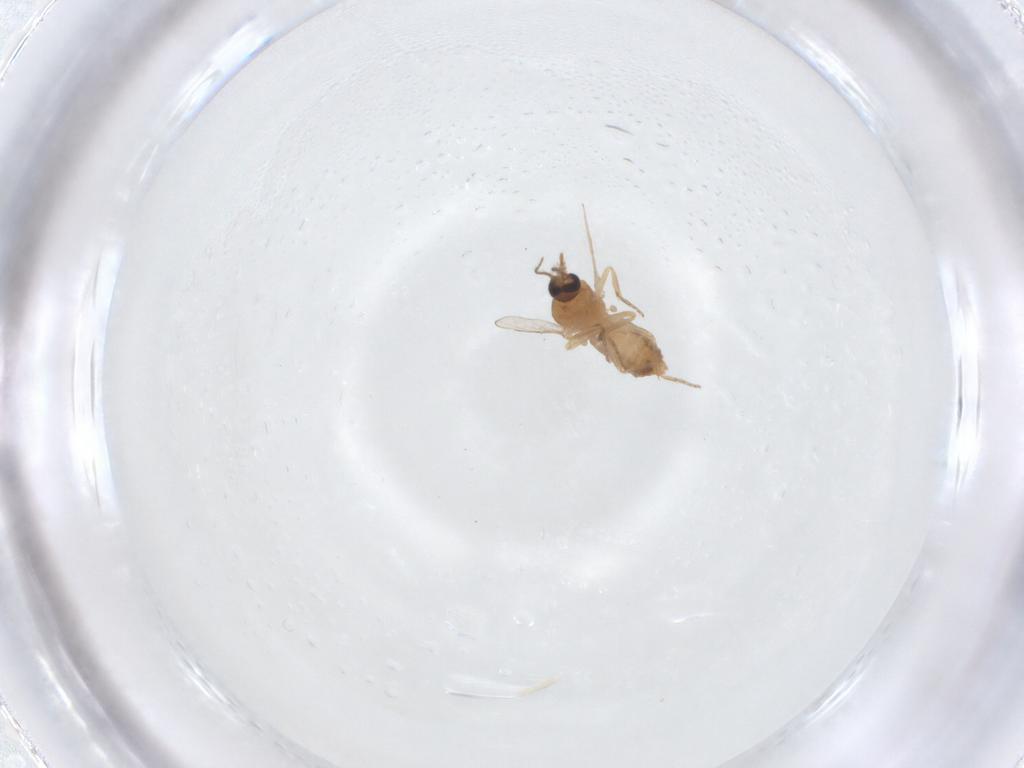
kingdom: Animalia
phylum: Arthropoda
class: Insecta
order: Diptera
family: Ceratopogonidae
